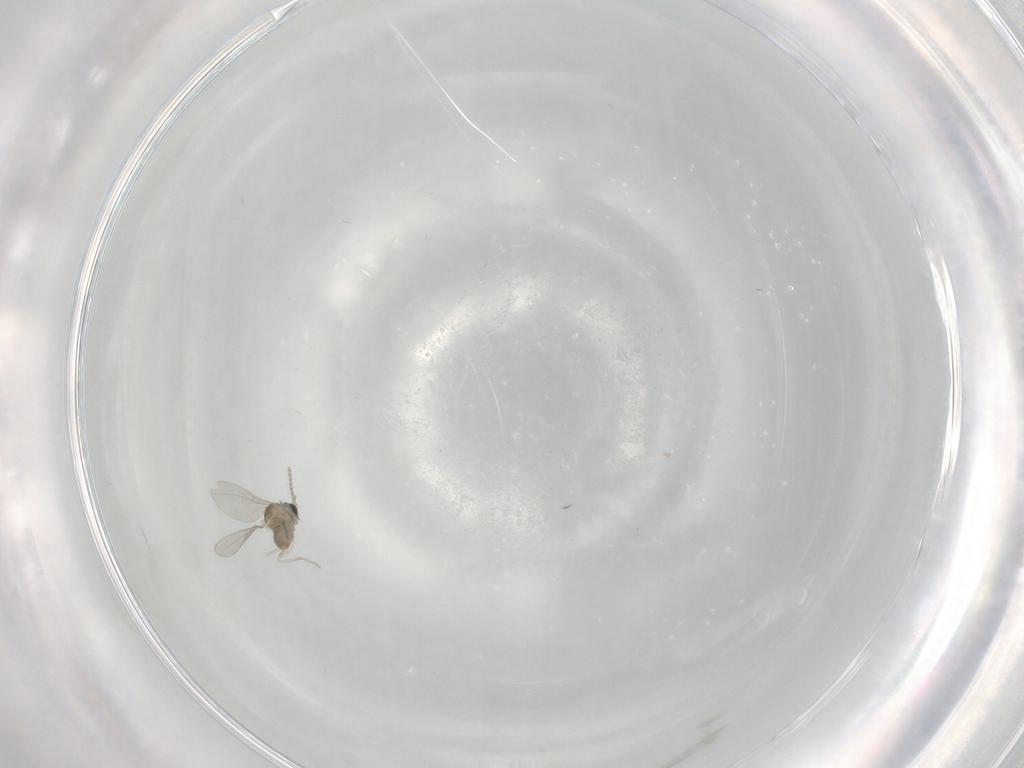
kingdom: Animalia
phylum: Arthropoda
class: Insecta
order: Diptera
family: Cecidomyiidae
